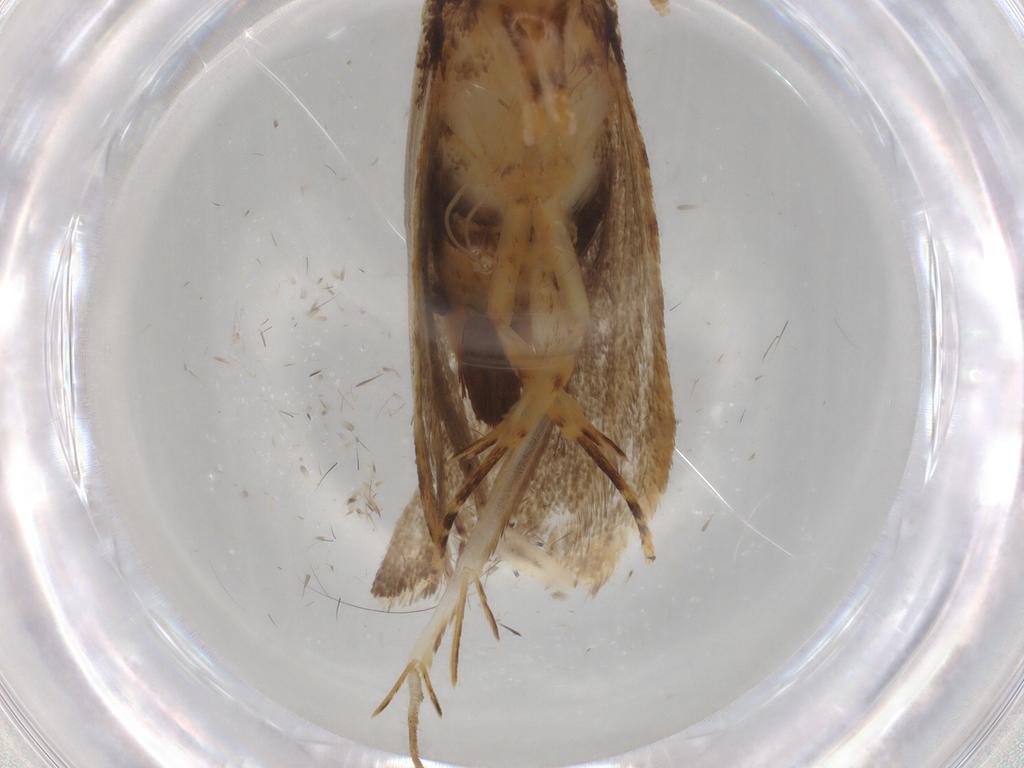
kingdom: Animalia
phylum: Arthropoda
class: Insecta
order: Lepidoptera
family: Lecithoceridae
